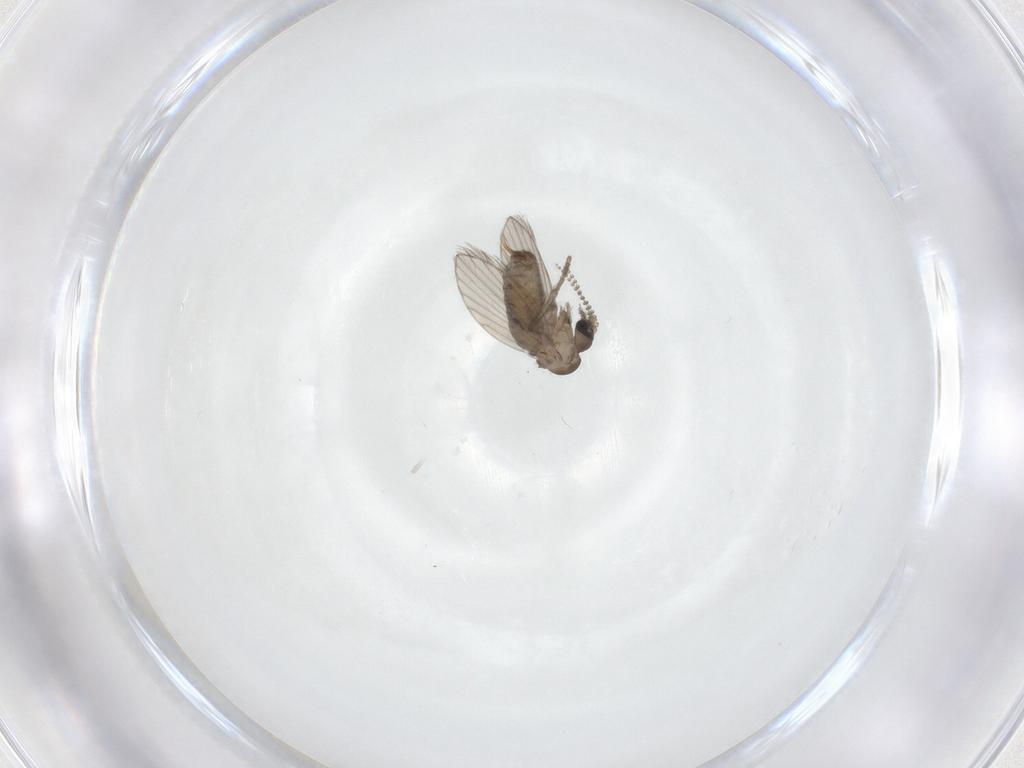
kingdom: Animalia
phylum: Arthropoda
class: Insecta
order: Diptera
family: Psychodidae
